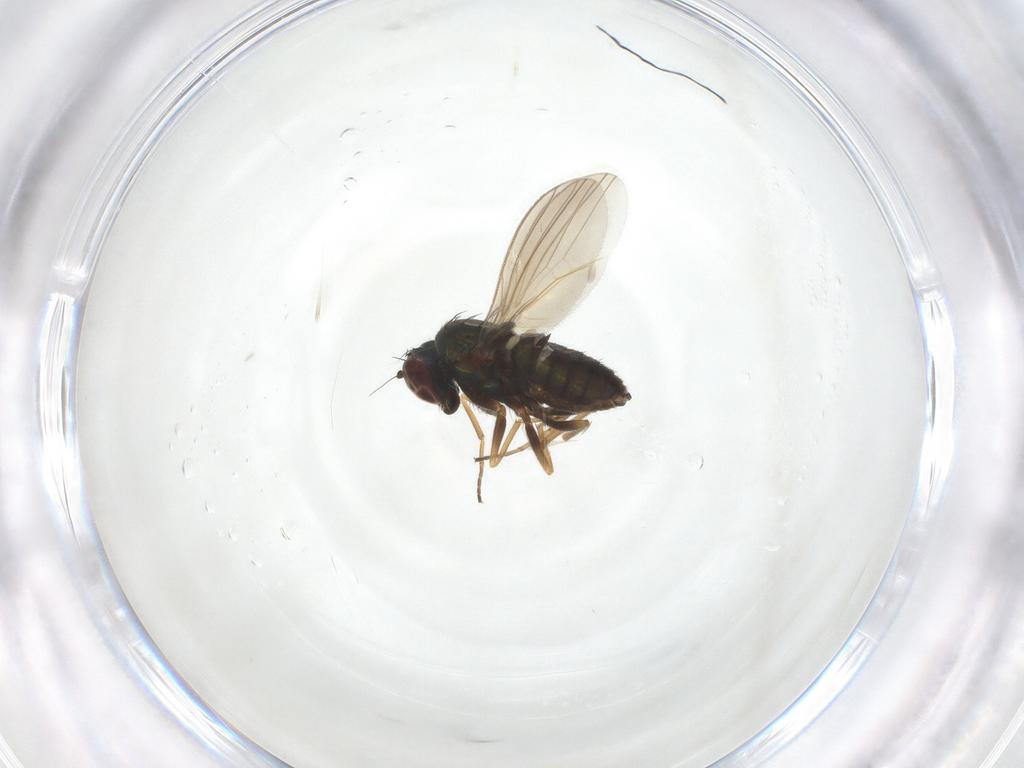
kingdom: Animalia
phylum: Arthropoda
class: Insecta
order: Diptera
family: Dolichopodidae
